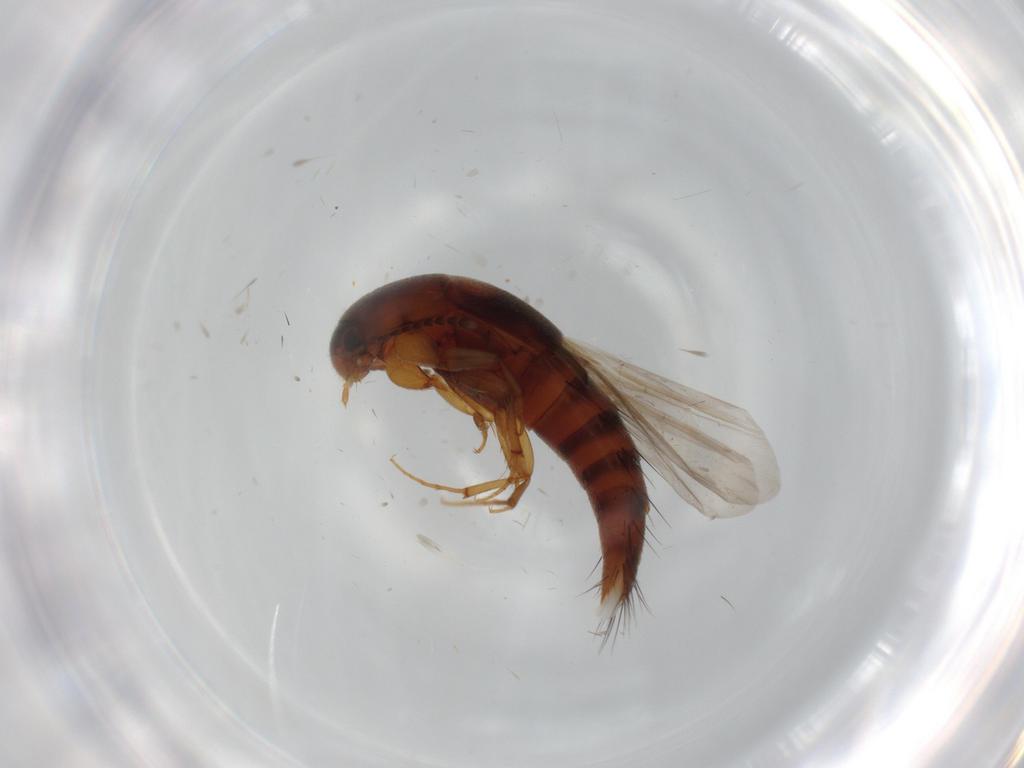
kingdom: Animalia
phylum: Arthropoda
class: Insecta
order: Coleoptera
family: Staphylinidae
